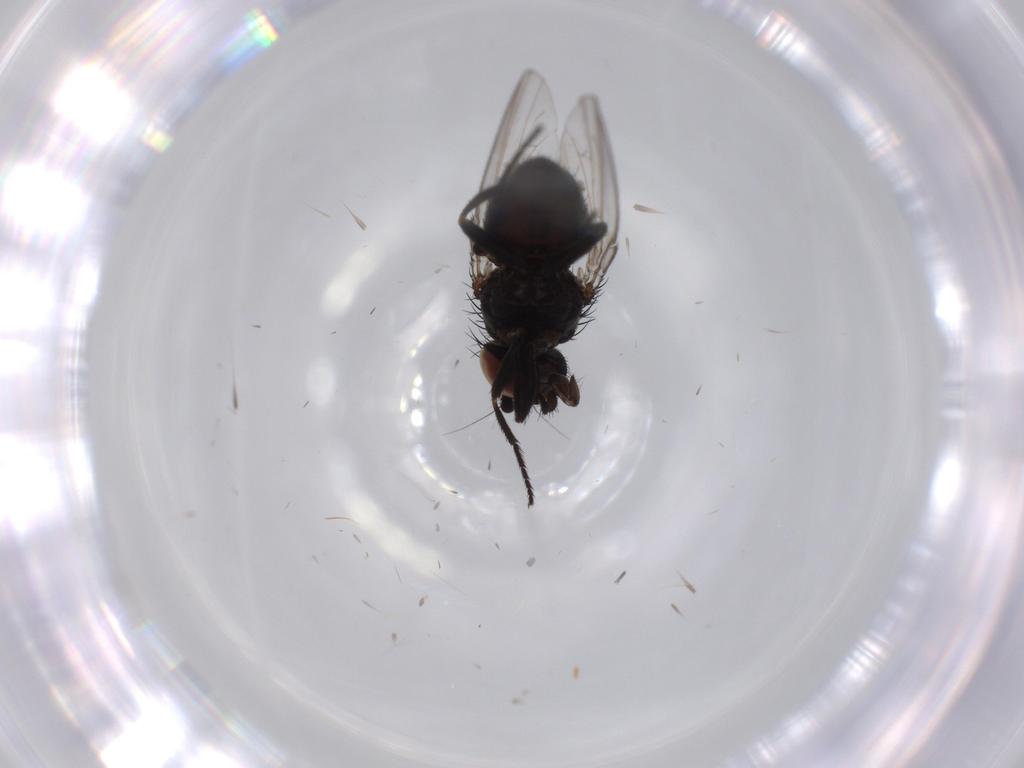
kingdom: Animalia
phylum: Arthropoda
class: Insecta
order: Diptera
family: Milichiidae
